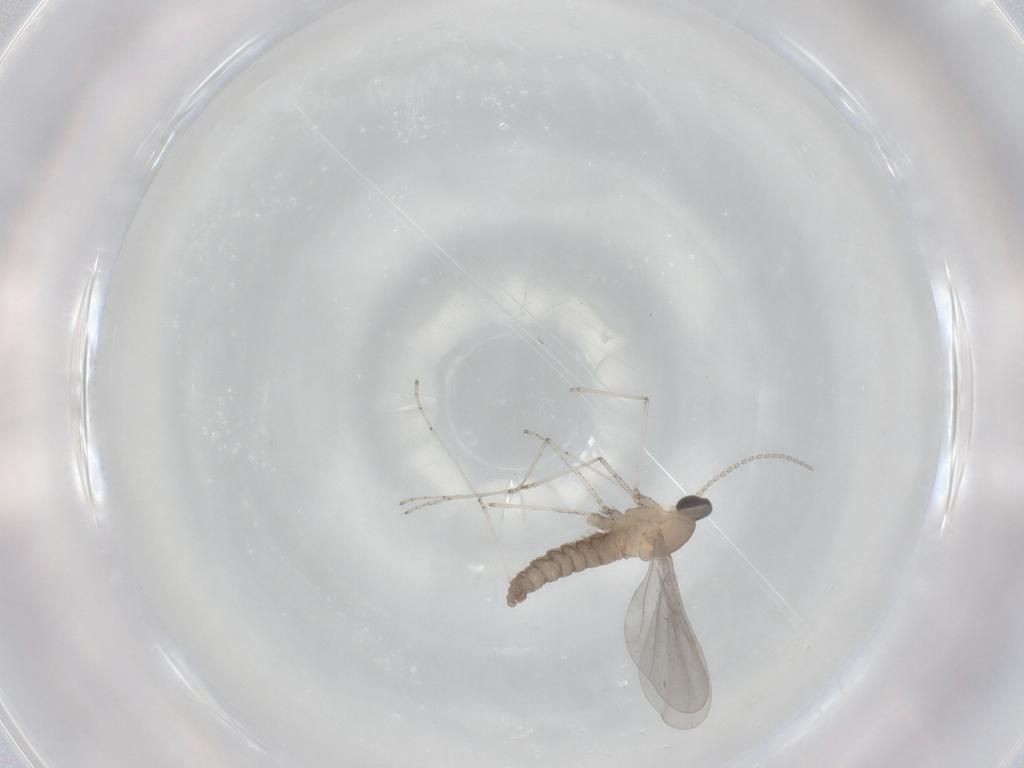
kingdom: Animalia
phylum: Arthropoda
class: Insecta
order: Diptera
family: Cecidomyiidae
